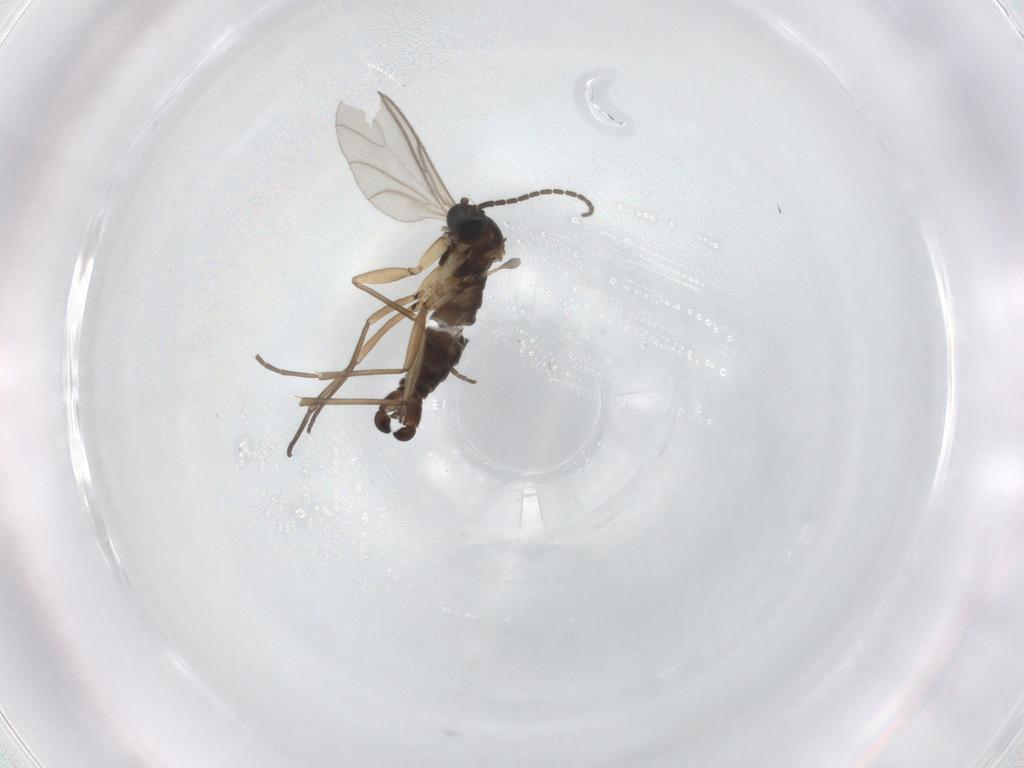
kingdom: Animalia
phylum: Arthropoda
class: Insecta
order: Diptera
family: Sciaridae
